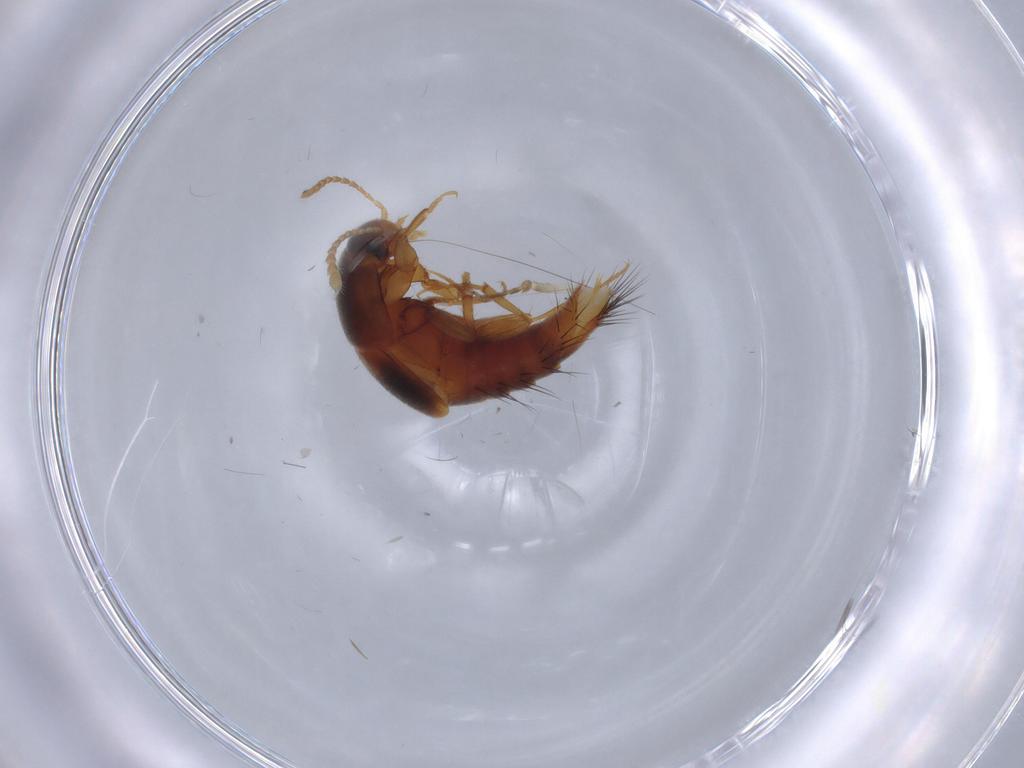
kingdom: Animalia
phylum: Arthropoda
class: Insecta
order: Coleoptera
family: Staphylinidae
